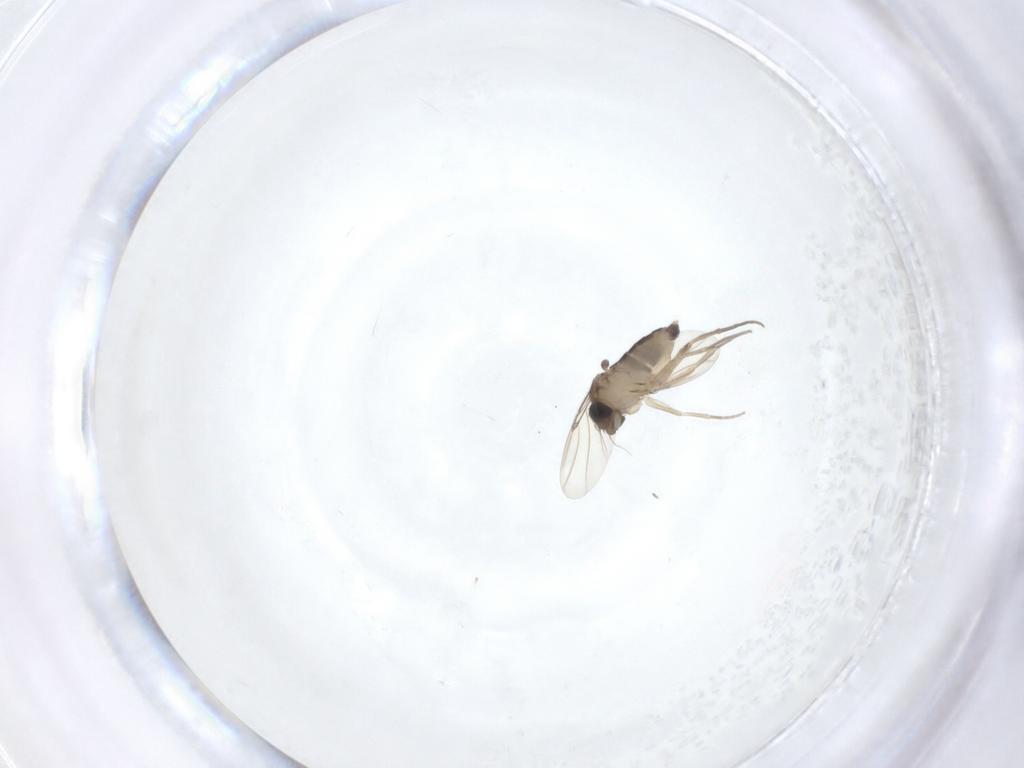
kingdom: Animalia
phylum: Arthropoda
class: Insecta
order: Diptera
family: Phoridae
